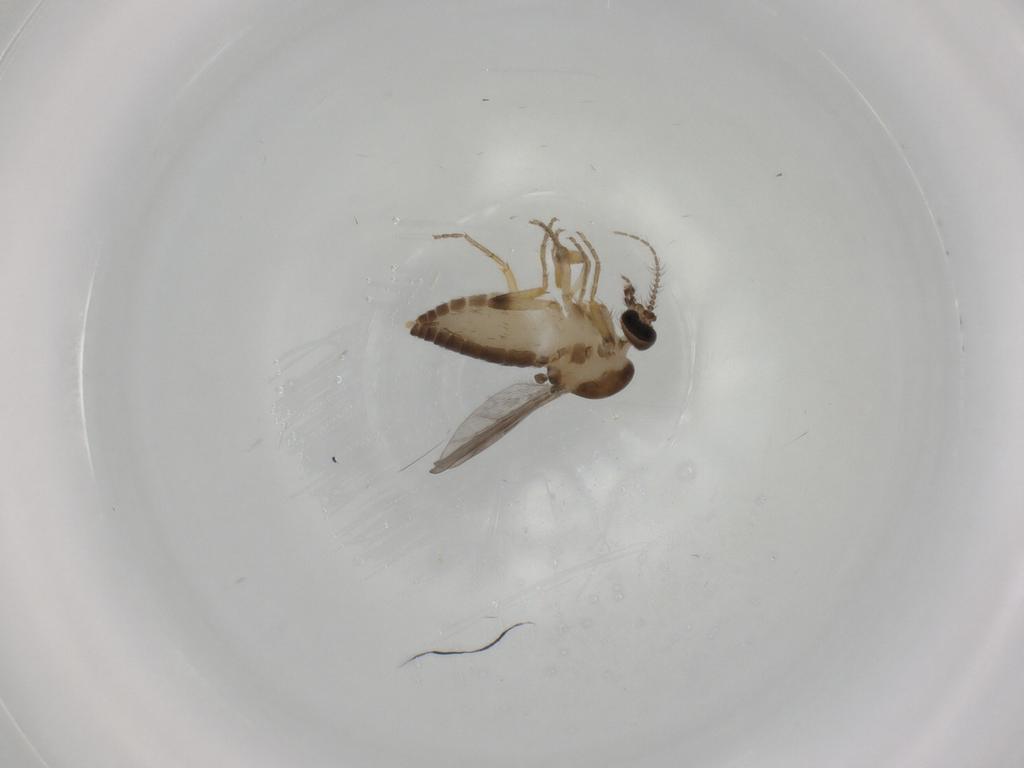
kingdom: Animalia
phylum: Arthropoda
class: Insecta
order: Diptera
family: Ceratopogonidae
